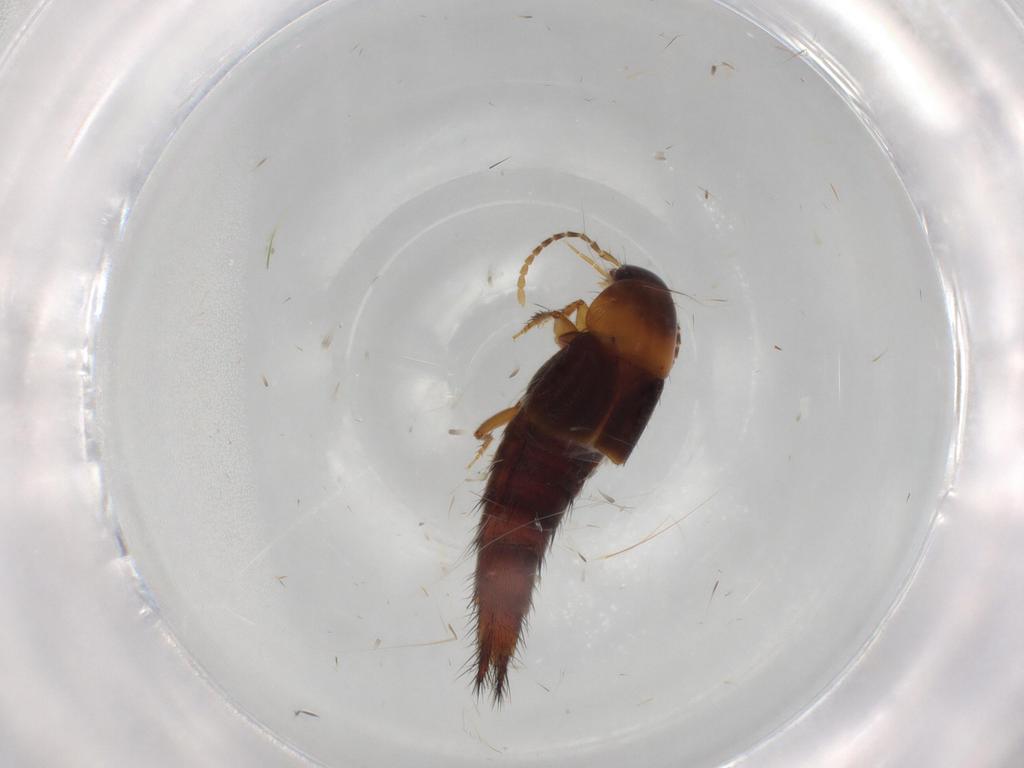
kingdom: Animalia
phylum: Arthropoda
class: Insecta
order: Coleoptera
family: Staphylinidae
